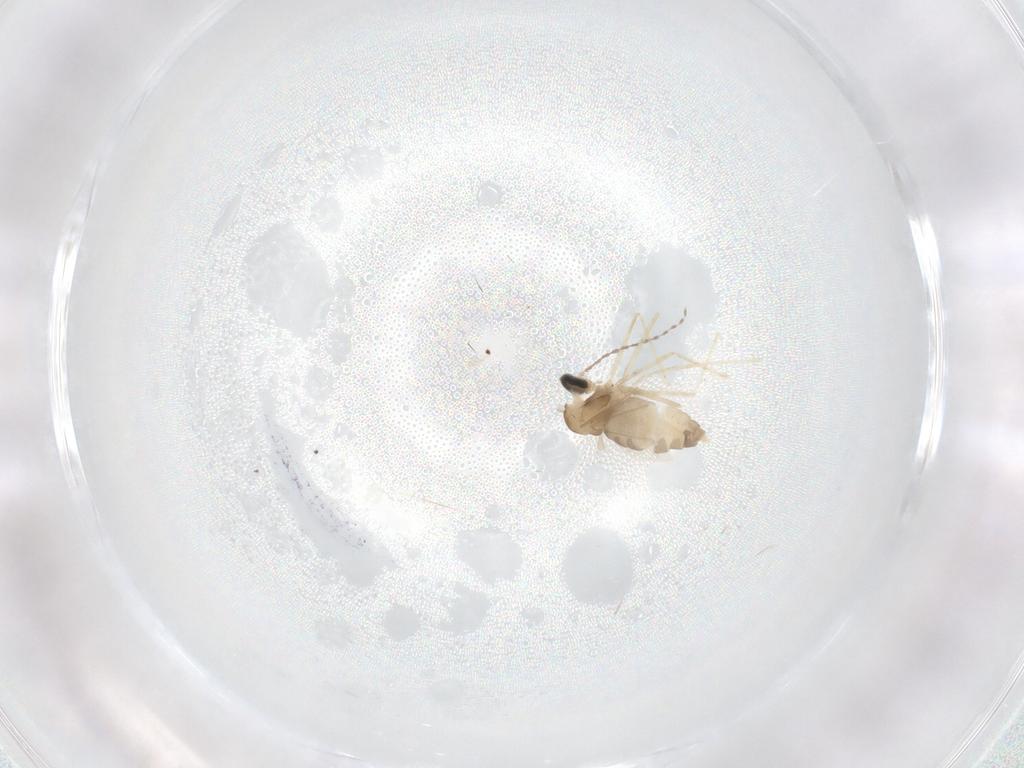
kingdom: Animalia
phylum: Arthropoda
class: Insecta
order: Diptera
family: Cecidomyiidae
